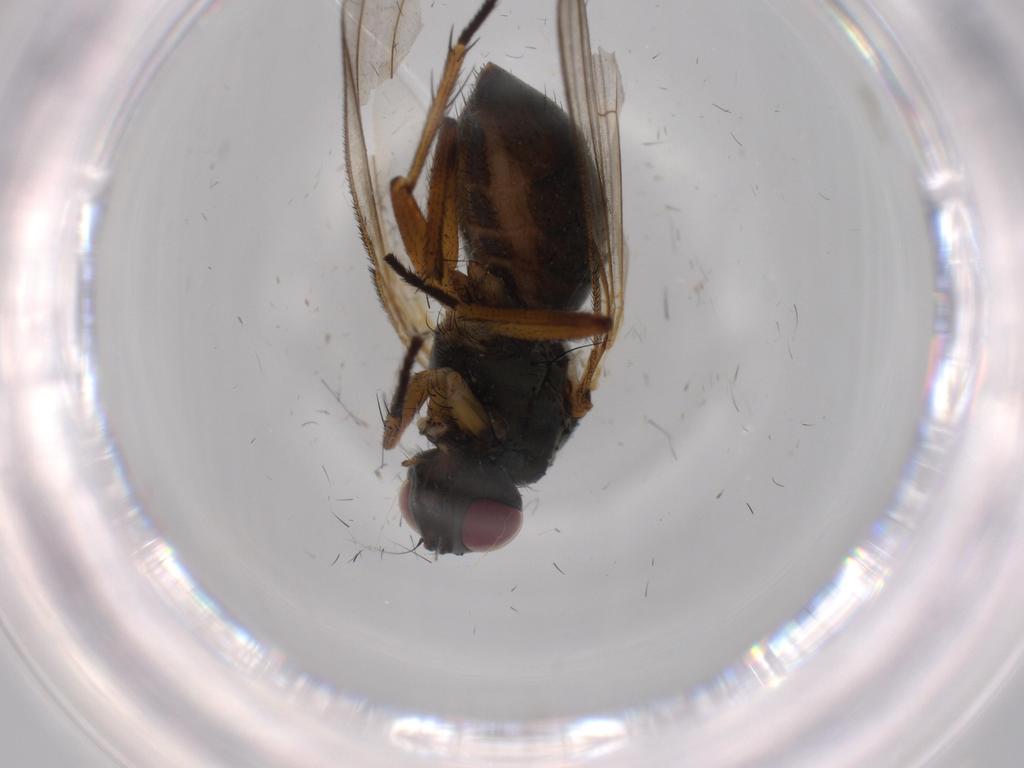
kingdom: Animalia
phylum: Arthropoda
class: Insecta
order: Diptera
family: Muscidae
